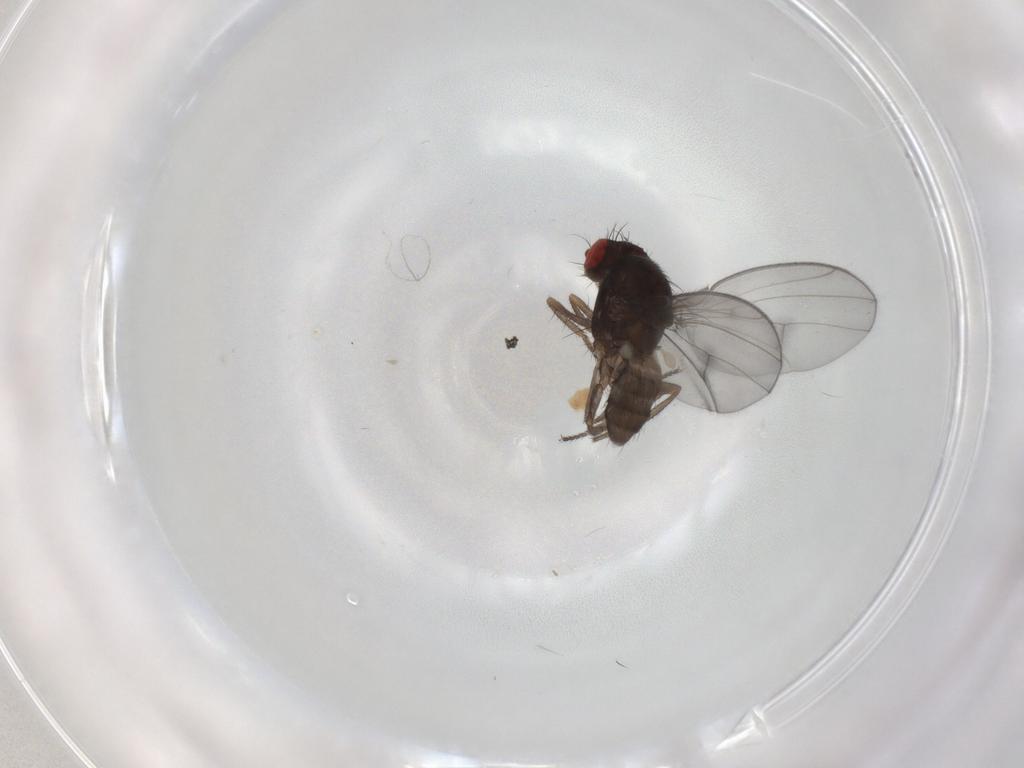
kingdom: Animalia
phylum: Arthropoda
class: Insecta
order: Diptera
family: Drosophilidae
